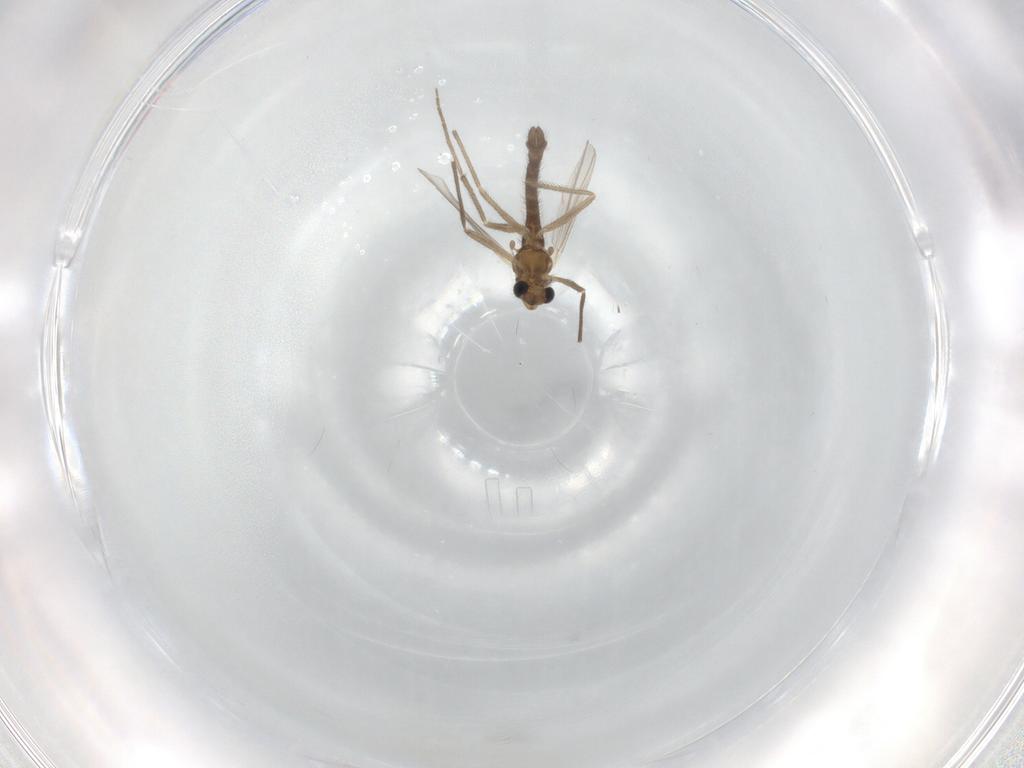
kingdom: Animalia
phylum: Arthropoda
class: Insecta
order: Diptera
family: Chironomidae
